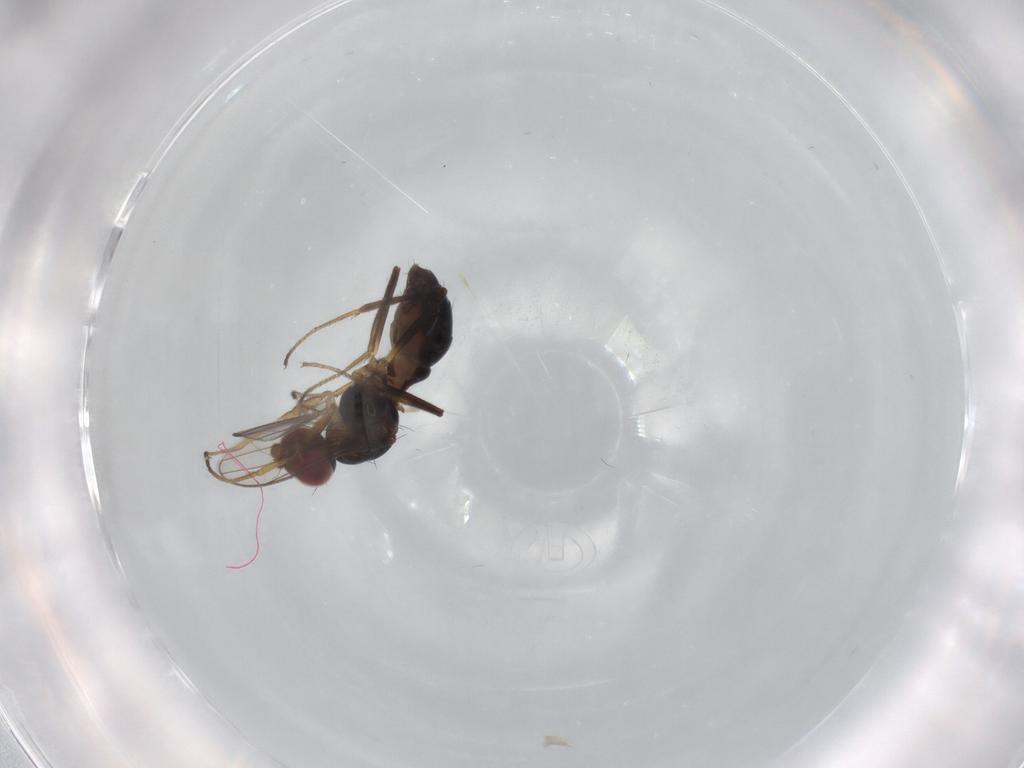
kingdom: Animalia
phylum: Arthropoda
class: Insecta
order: Diptera
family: Sepsidae
